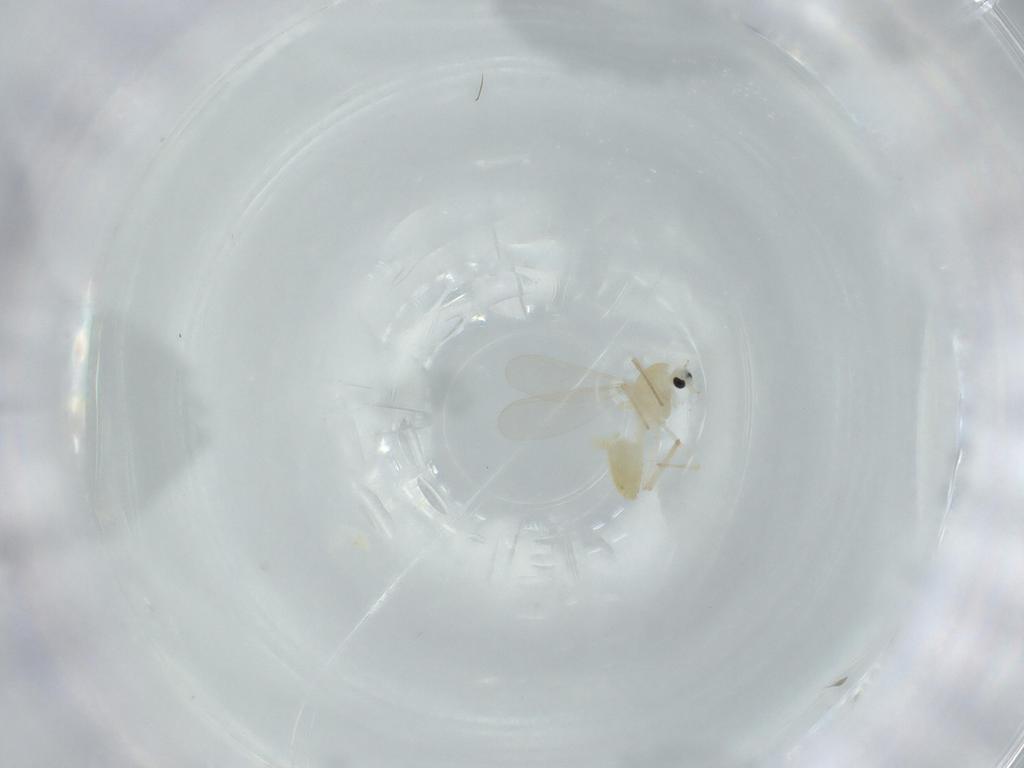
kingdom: Animalia
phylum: Arthropoda
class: Insecta
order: Diptera
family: Chironomidae
